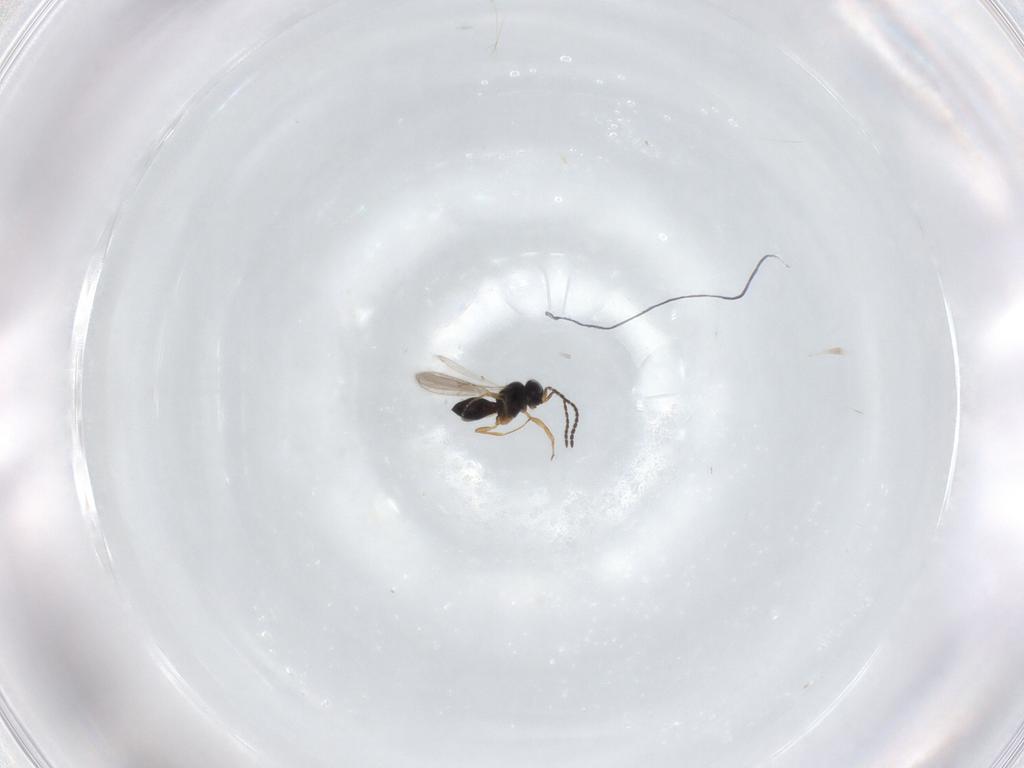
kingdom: Animalia
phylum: Arthropoda
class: Insecta
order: Hymenoptera
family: Scelionidae
